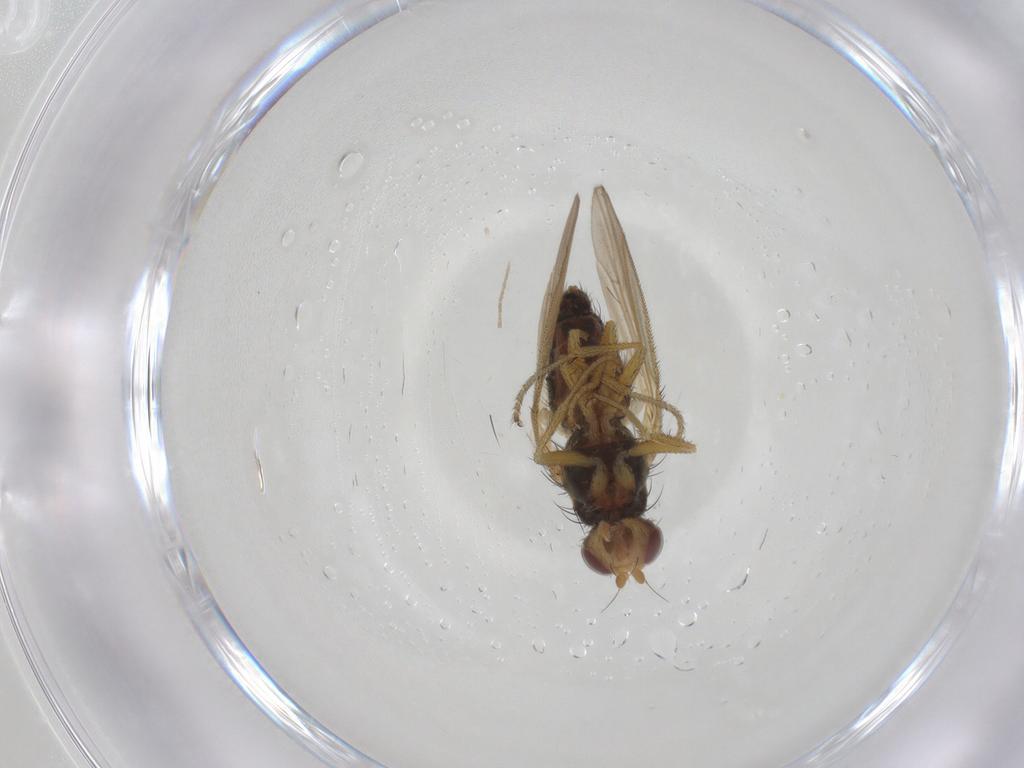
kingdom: Animalia
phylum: Arthropoda
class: Insecta
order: Diptera
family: Heleomyzidae
